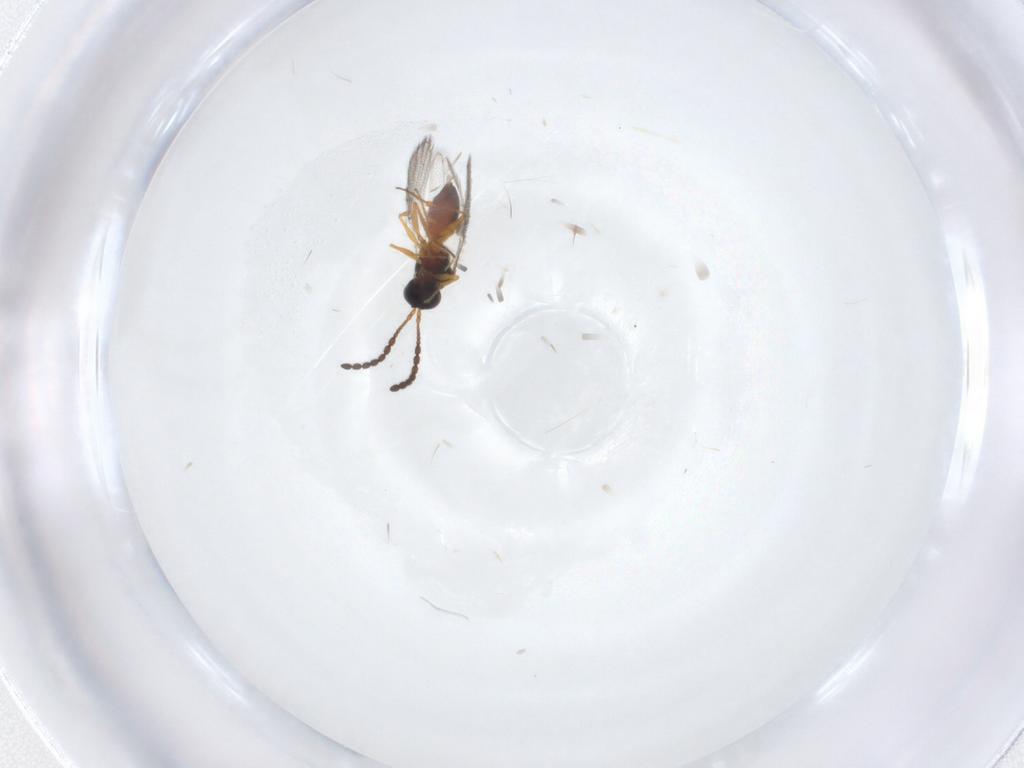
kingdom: Animalia
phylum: Arthropoda
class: Insecta
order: Hymenoptera
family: Figitidae
